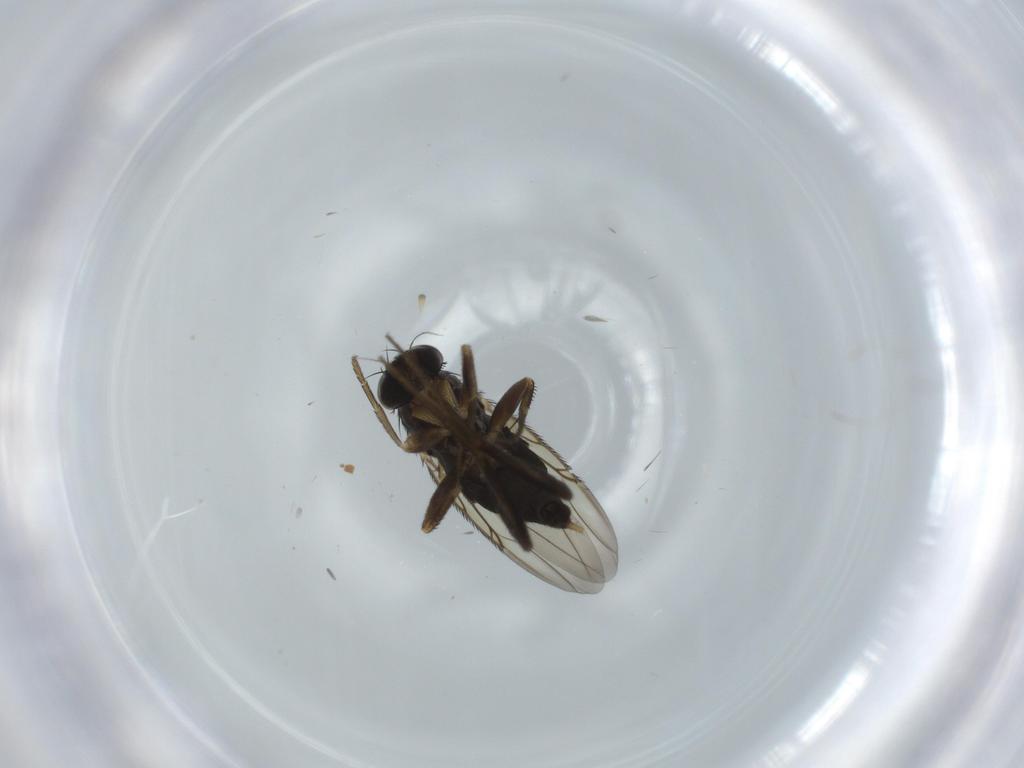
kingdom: Animalia
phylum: Arthropoda
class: Insecta
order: Diptera
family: Phoridae
